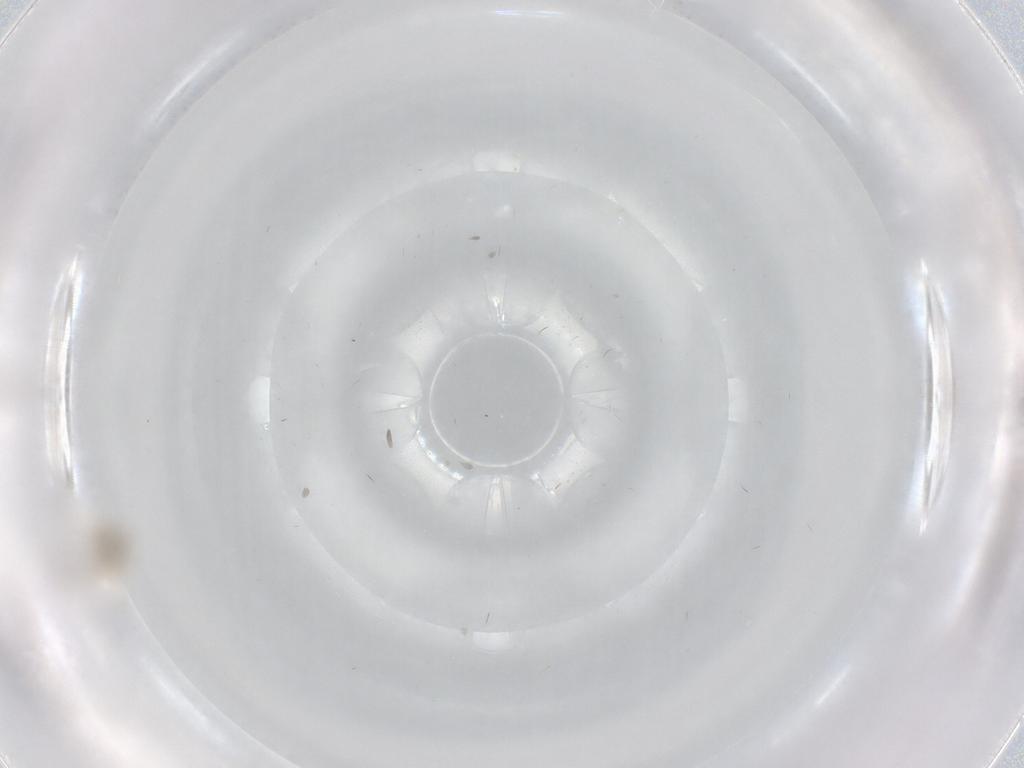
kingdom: Animalia
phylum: Arthropoda
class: Insecta
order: Diptera
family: Cecidomyiidae
